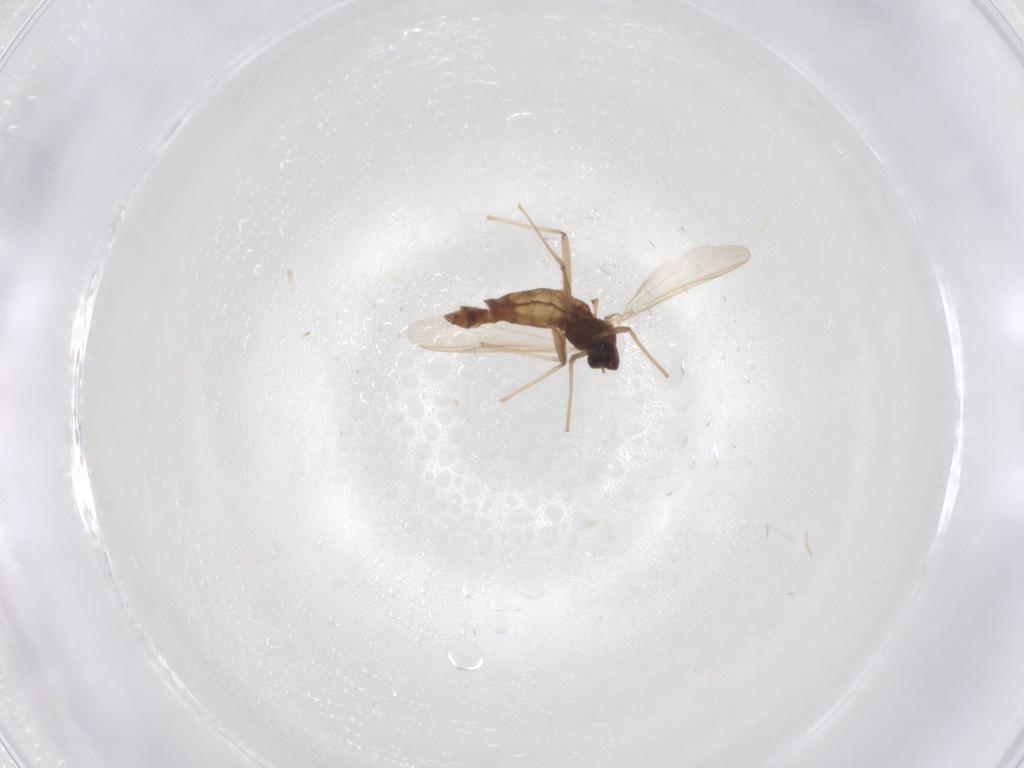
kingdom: Animalia
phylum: Arthropoda
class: Insecta
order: Diptera
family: Chironomidae
